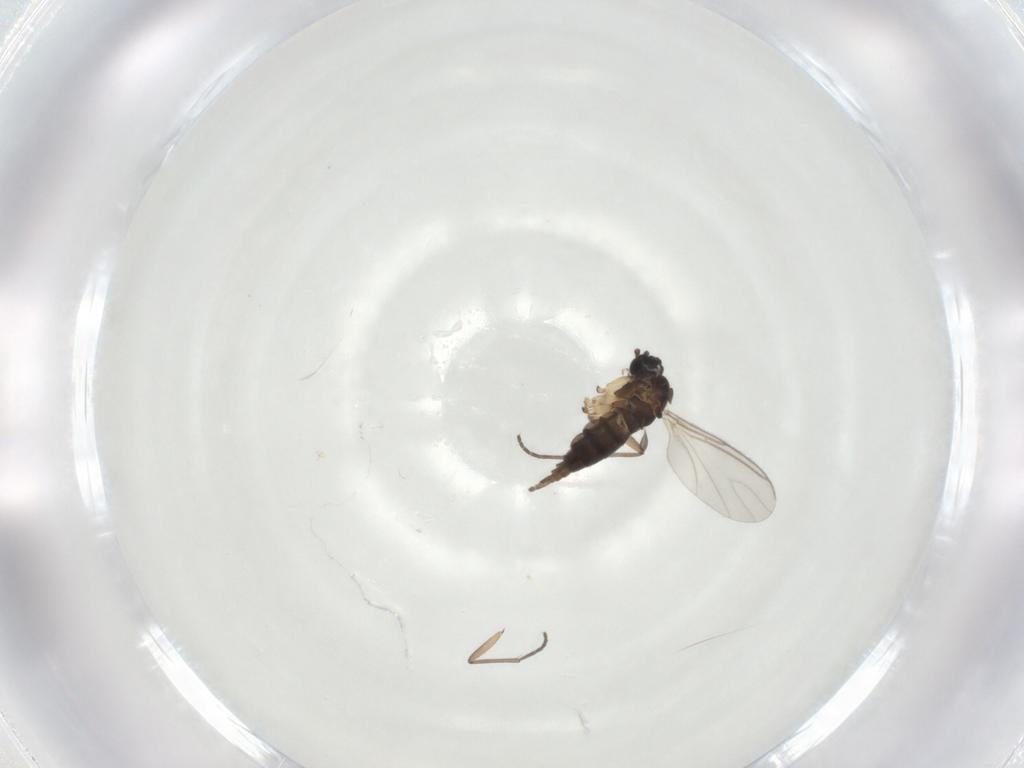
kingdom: Animalia
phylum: Arthropoda
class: Insecta
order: Diptera
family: Sciaridae
